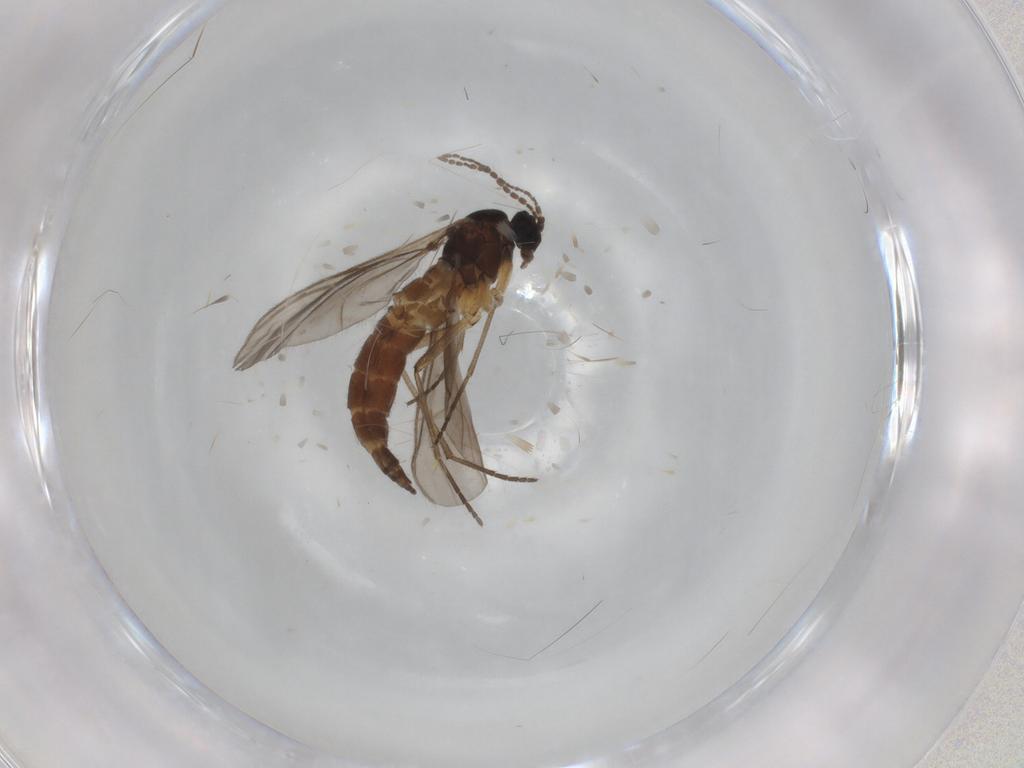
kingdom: Animalia
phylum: Arthropoda
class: Insecta
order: Diptera
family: Sciaridae
